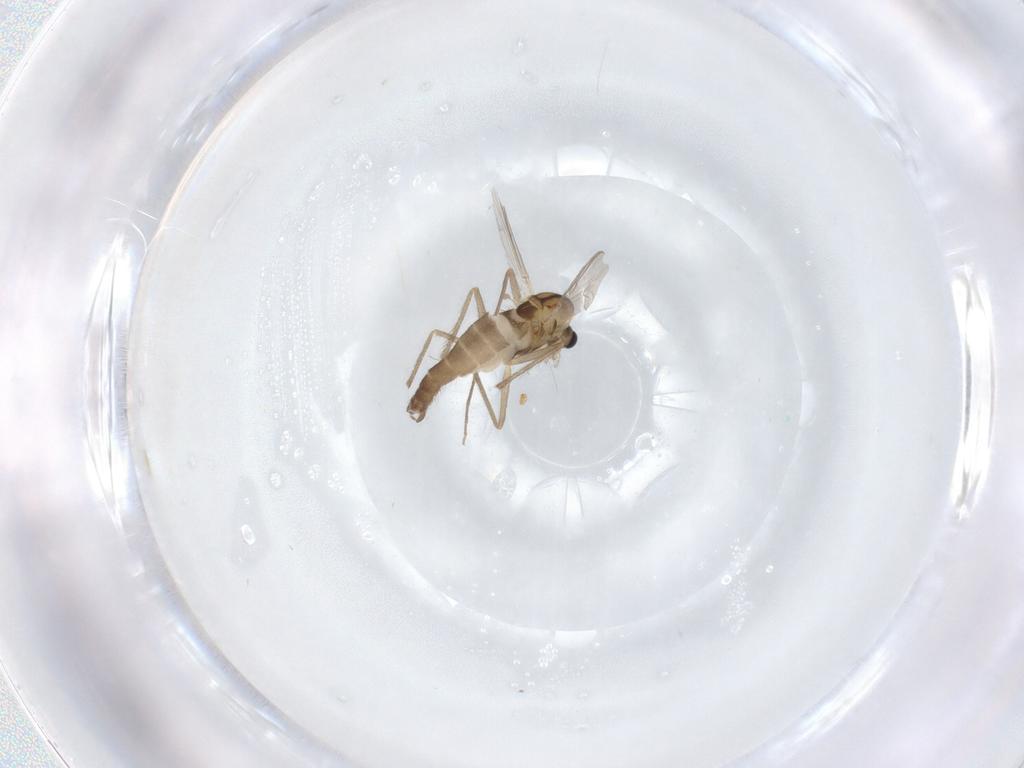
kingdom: Animalia
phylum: Arthropoda
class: Insecta
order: Diptera
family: Chironomidae
